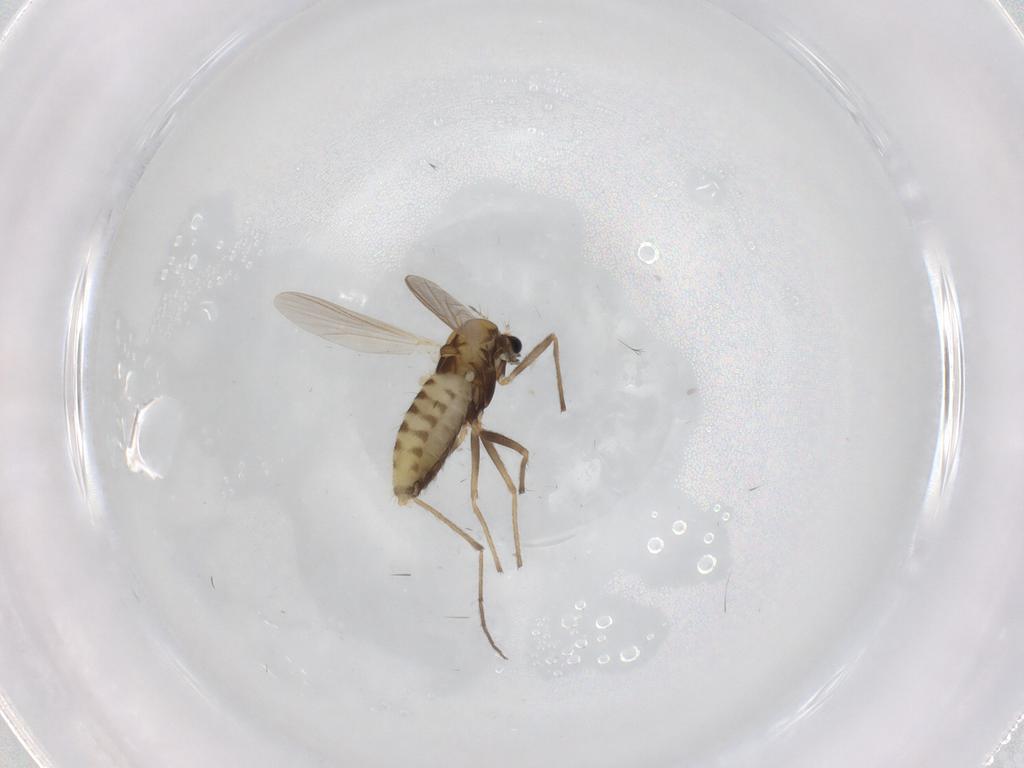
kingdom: Animalia
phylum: Arthropoda
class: Insecta
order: Diptera
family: Chironomidae
